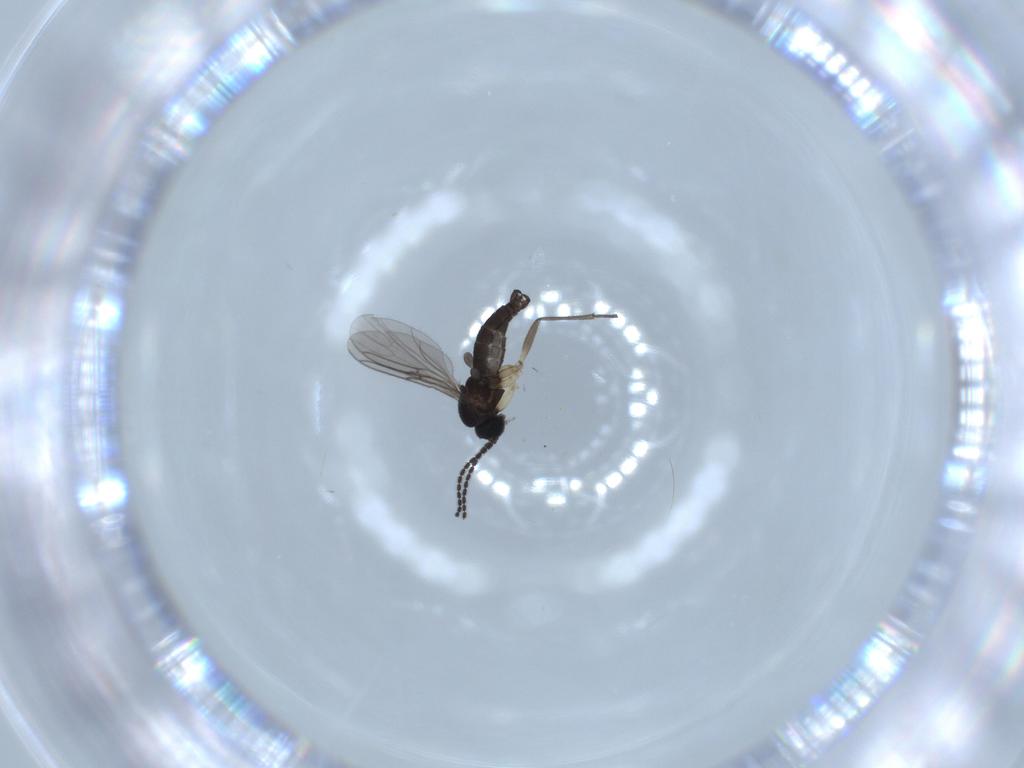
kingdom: Animalia
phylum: Arthropoda
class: Insecta
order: Diptera
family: Sciaridae
